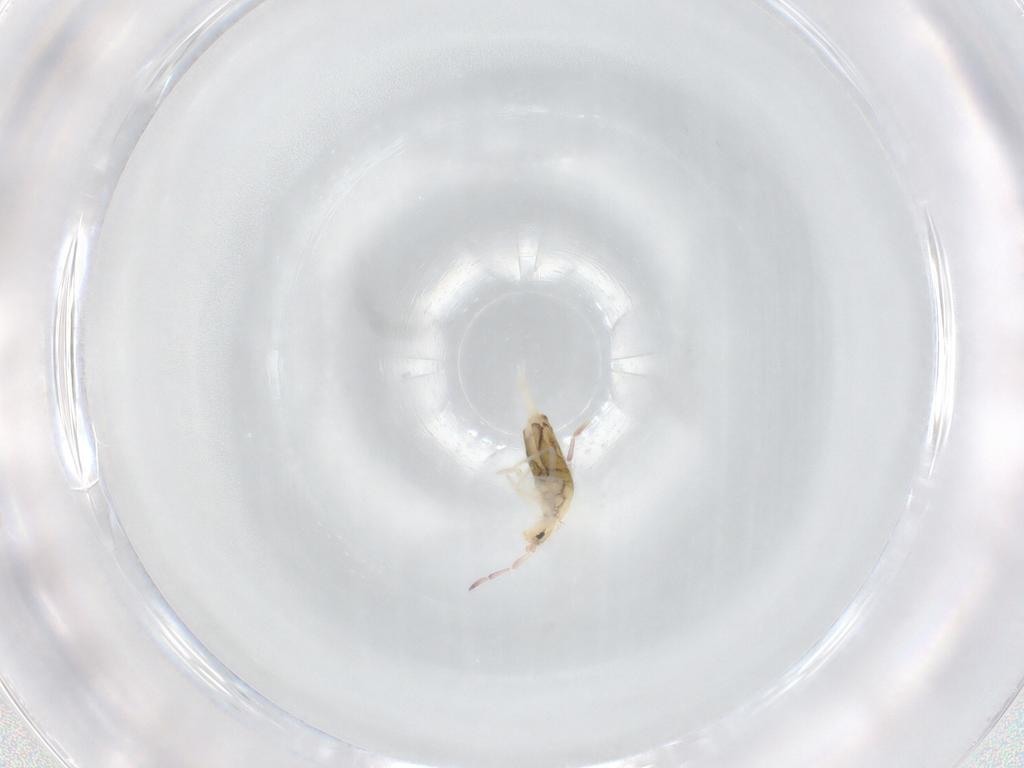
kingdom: Animalia
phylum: Arthropoda
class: Collembola
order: Entomobryomorpha
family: Entomobryidae
